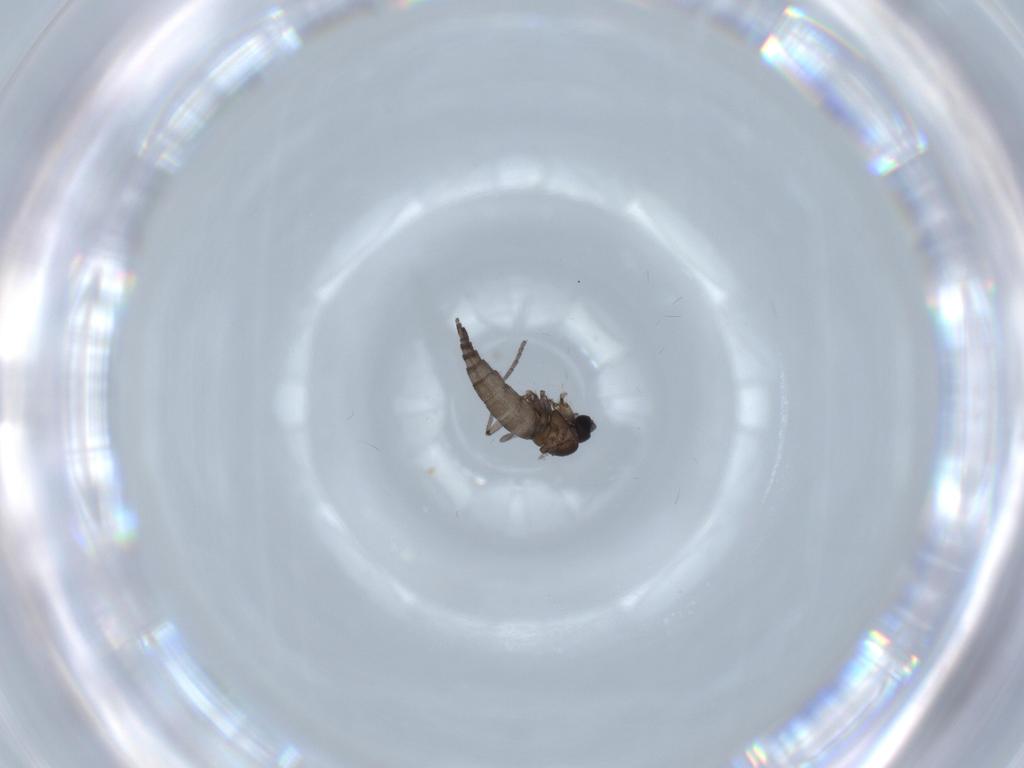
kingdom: Animalia
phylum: Arthropoda
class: Insecta
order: Diptera
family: Sciaridae
